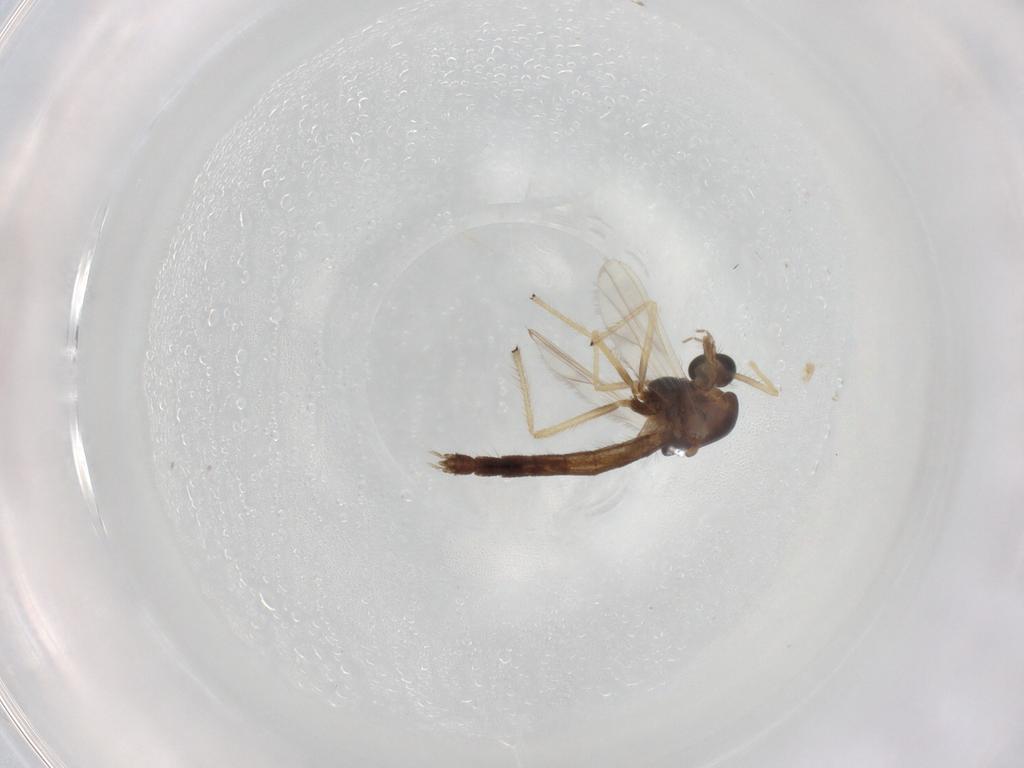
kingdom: Animalia
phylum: Arthropoda
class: Insecta
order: Diptera
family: Chironomidae
